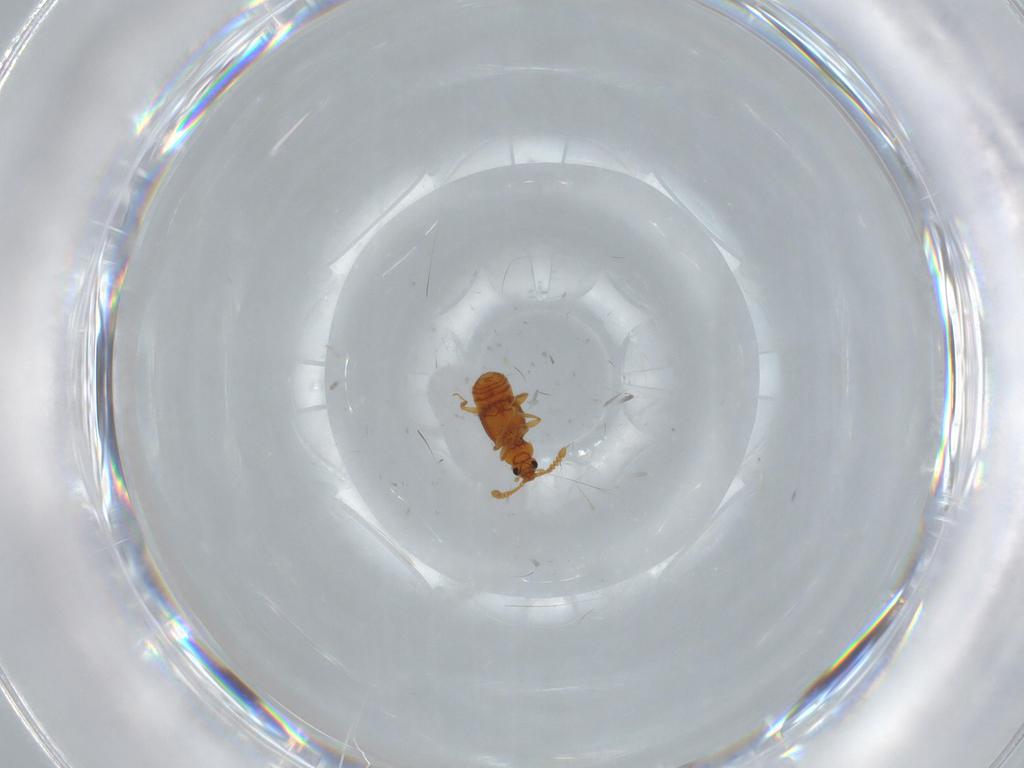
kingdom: Animalia
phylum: Arthropoda
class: Insecta
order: Coleoptera
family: Staphylinidae
